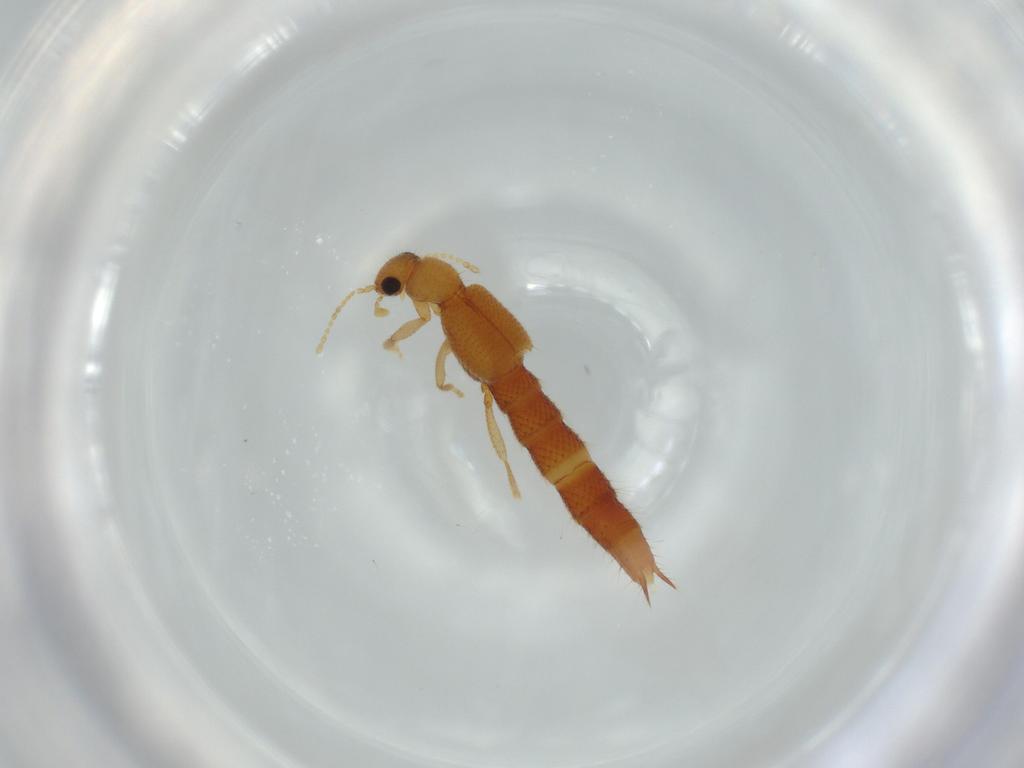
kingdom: Animalia
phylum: Arthropoda
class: Insecta
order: Coleoptera
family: Staphylinidae
